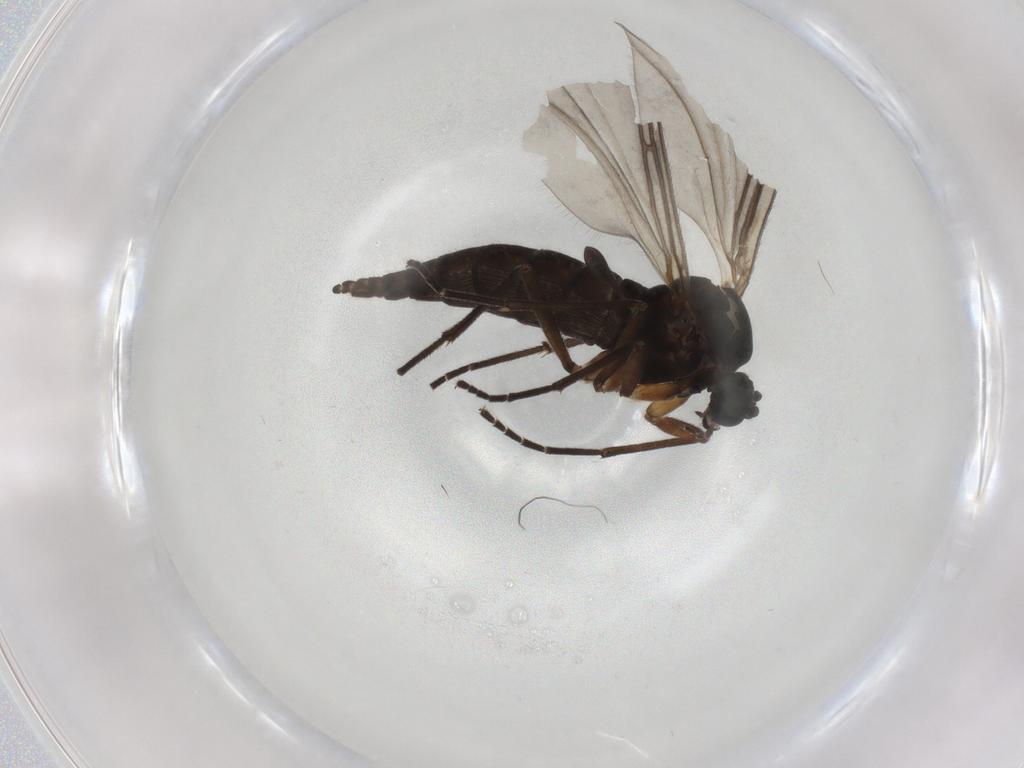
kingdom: Animalia
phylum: Arthropoda
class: Insecta
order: Diptera
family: Sciaridae
